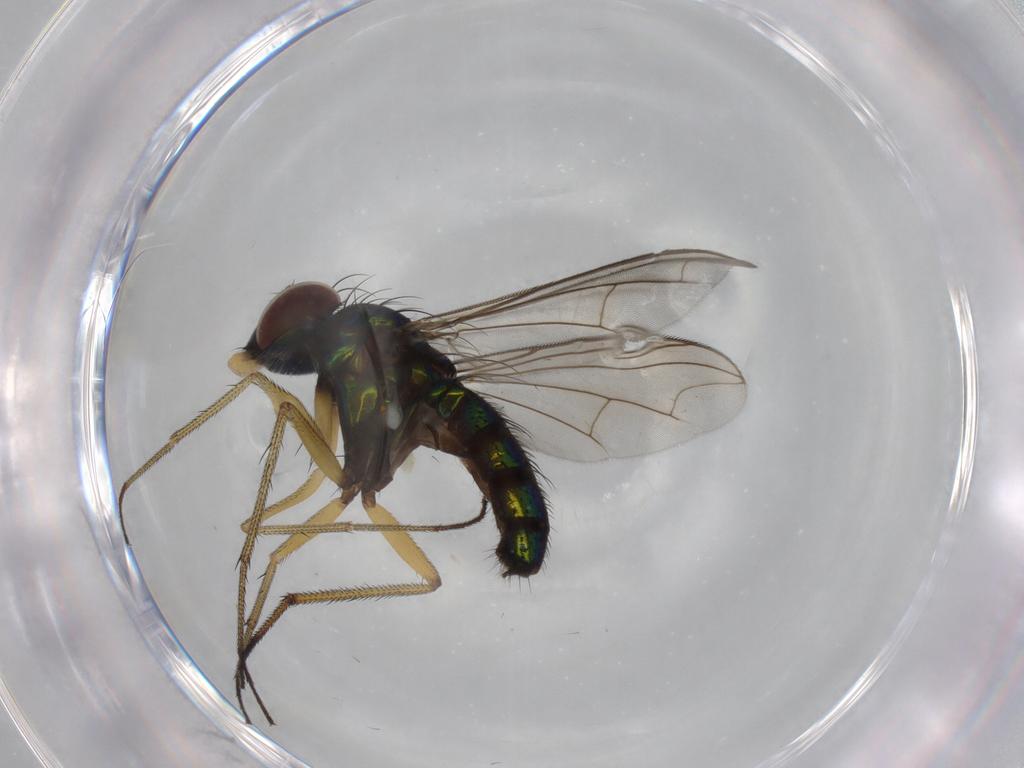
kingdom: Animalia
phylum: Arthropoda
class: Insecta
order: Diptera
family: Dolichopodidae
